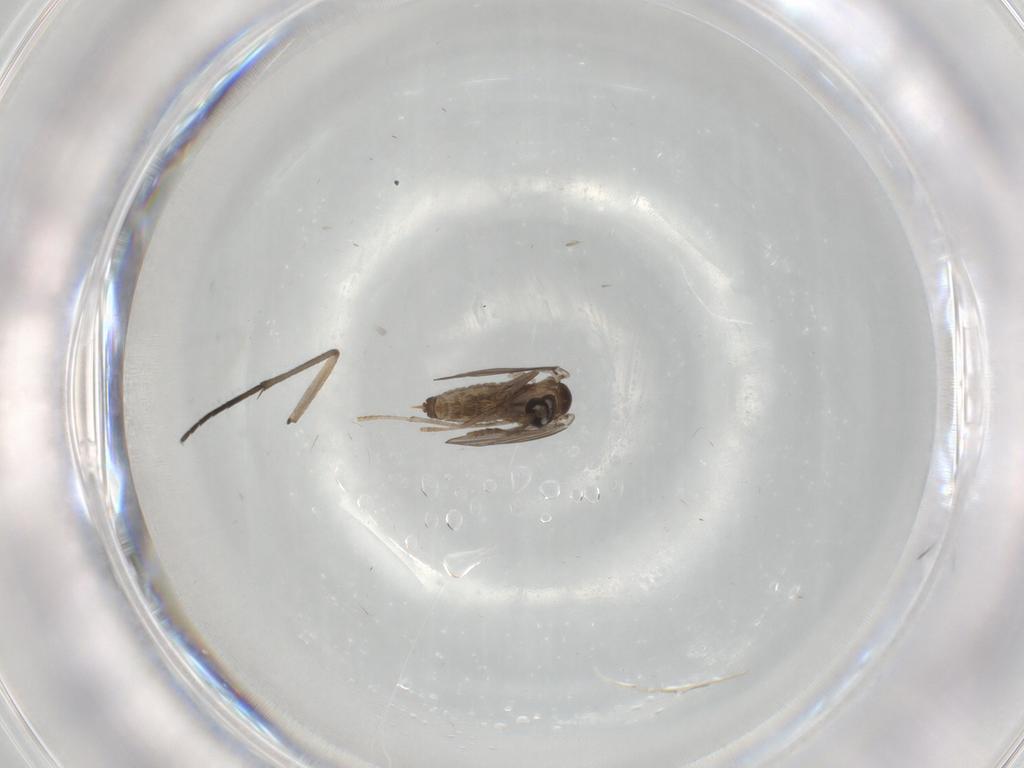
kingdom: Animalia
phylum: Arthropoda
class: Insecta
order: Diptera
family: Psychodidae
